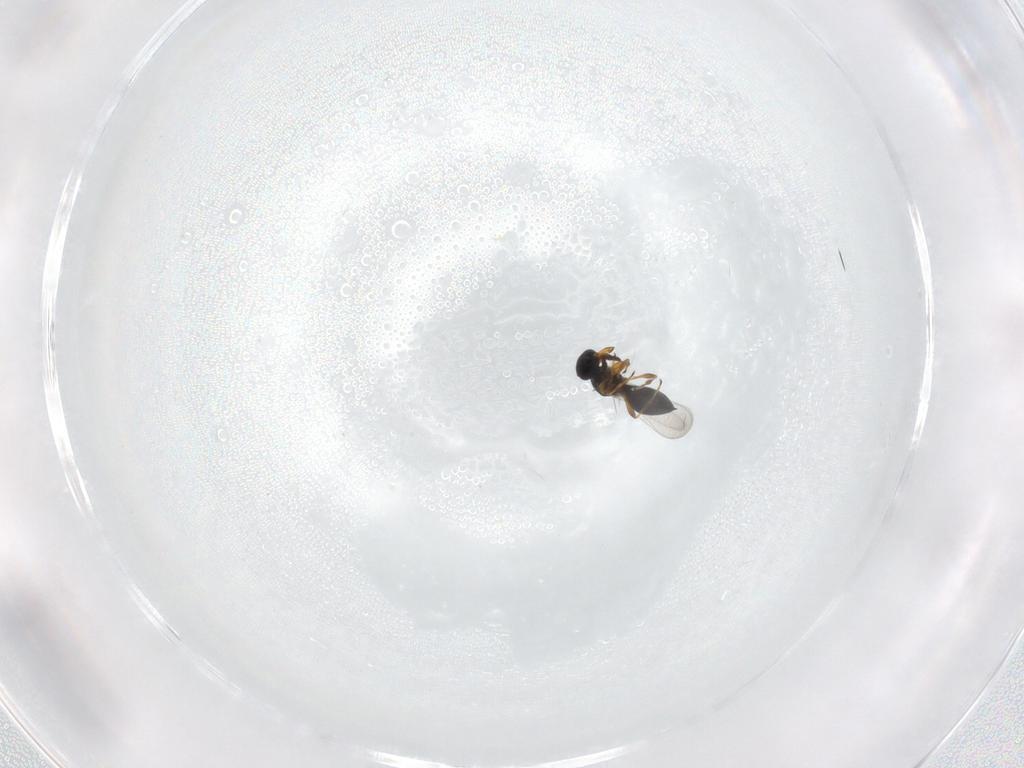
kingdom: Animalia
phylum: Arthropoda
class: Insecta
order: Hymenoptera
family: Platygastridae
